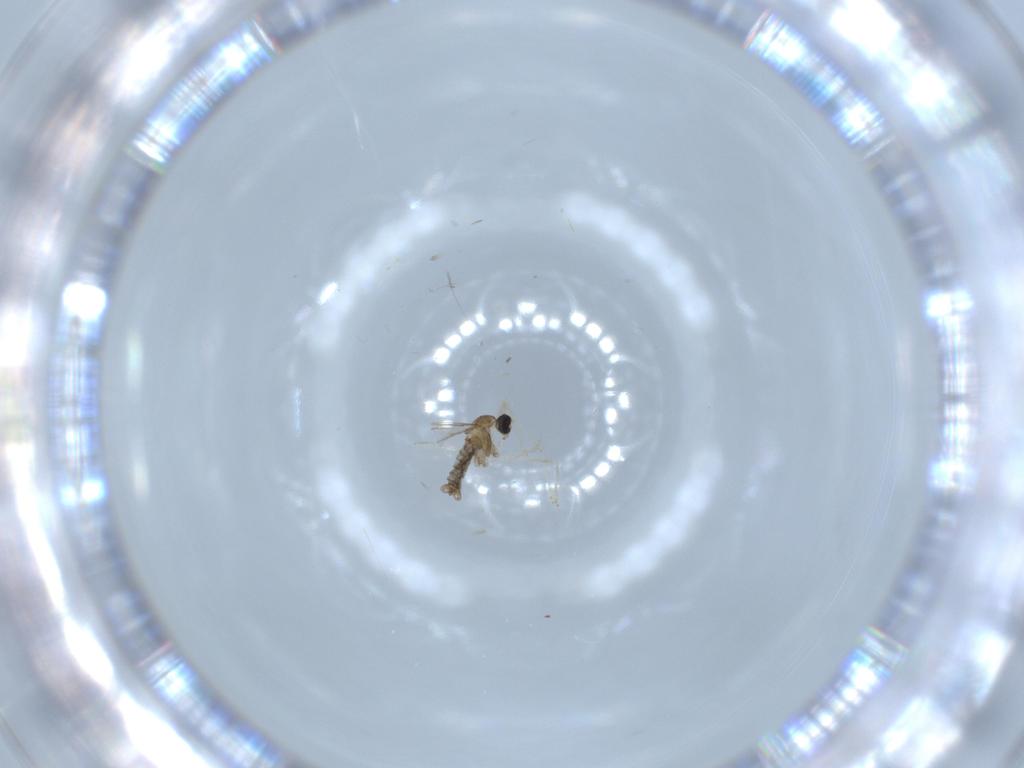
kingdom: Animalia
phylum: Arthropoda
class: Insecta
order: Diptera
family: Cecidomyiidae
